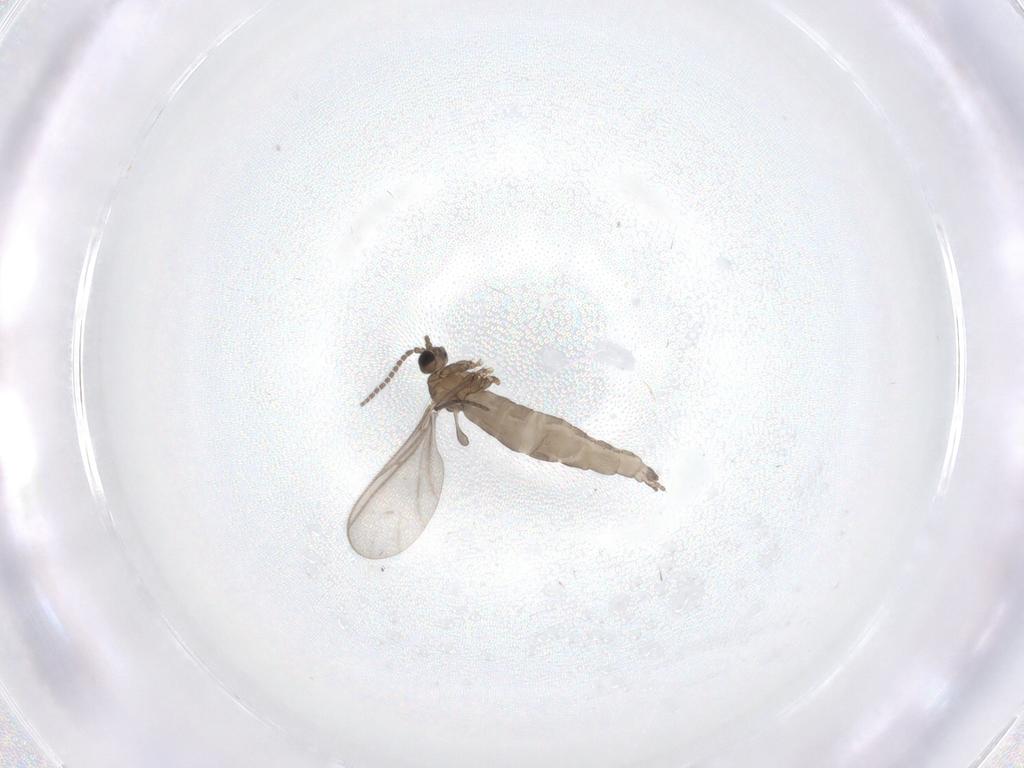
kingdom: Animalia
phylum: Arthropoda
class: Insecta
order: Diptera
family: Sciaridae
